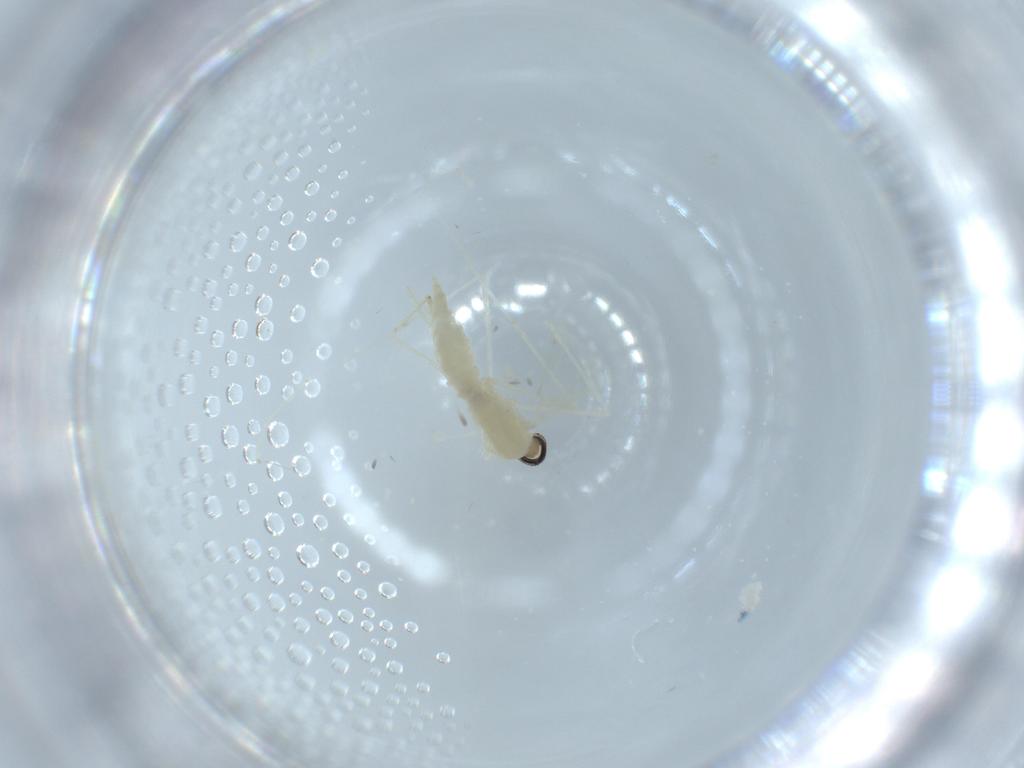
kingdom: Animalia
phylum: Arthropoda
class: Insecta
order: Diptera
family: Cecidomyiidae
